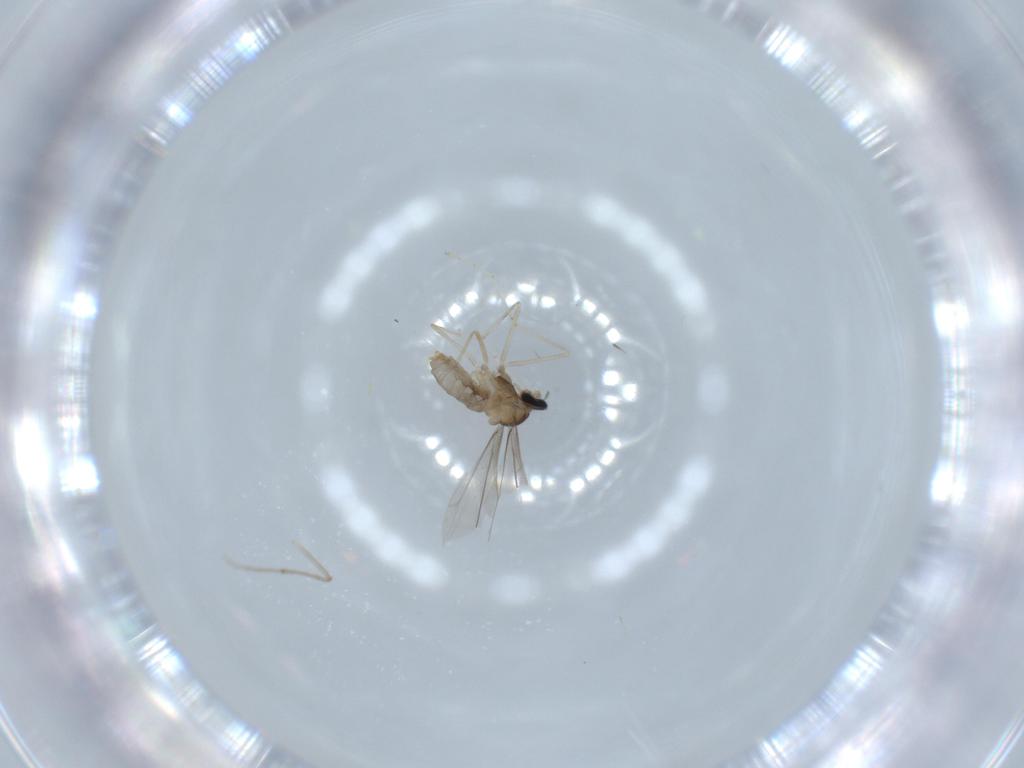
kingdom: Animalia
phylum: Arthropoda
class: Insecta
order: Diptera
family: Cecidomyiidae
